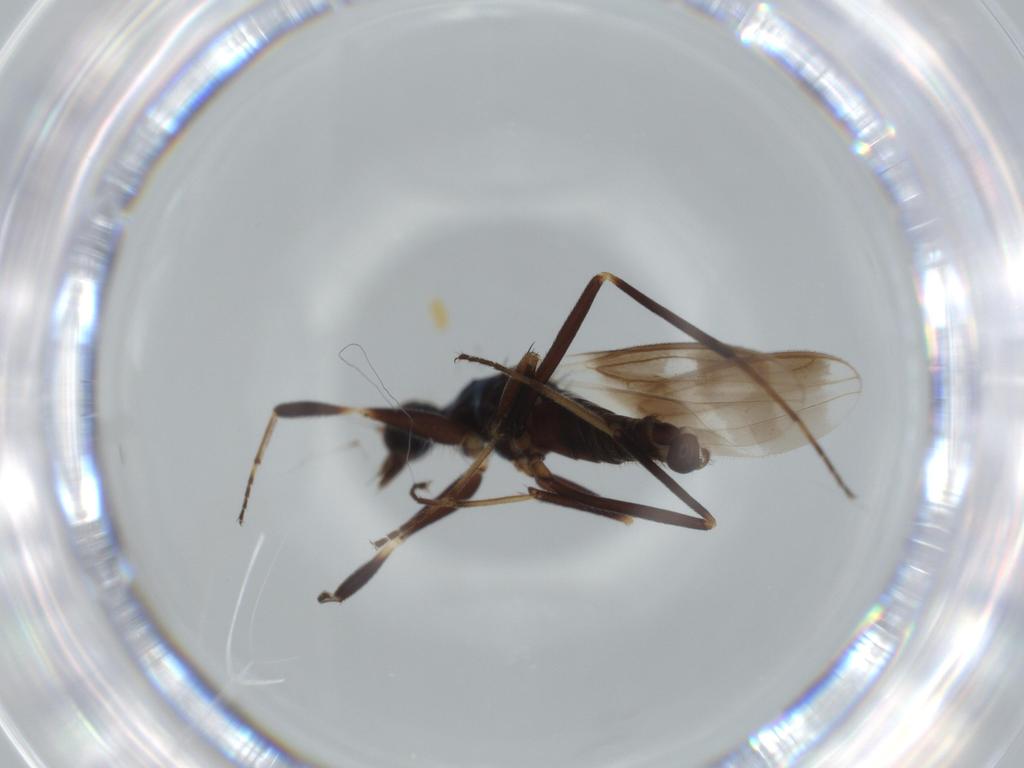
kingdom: Animalia
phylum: Arthropoda
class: Insecta
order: Diptera
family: Hybotidae
